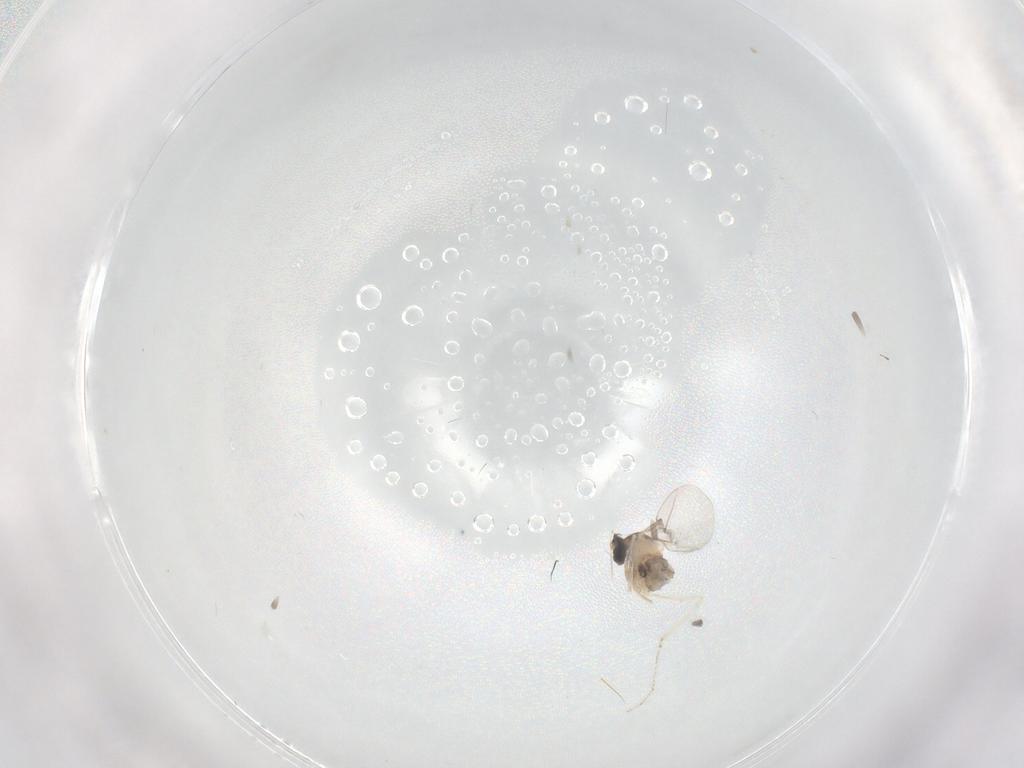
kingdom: Animalia
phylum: Arthropoda
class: Insecta
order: Diptera
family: Cecidomyiidae
